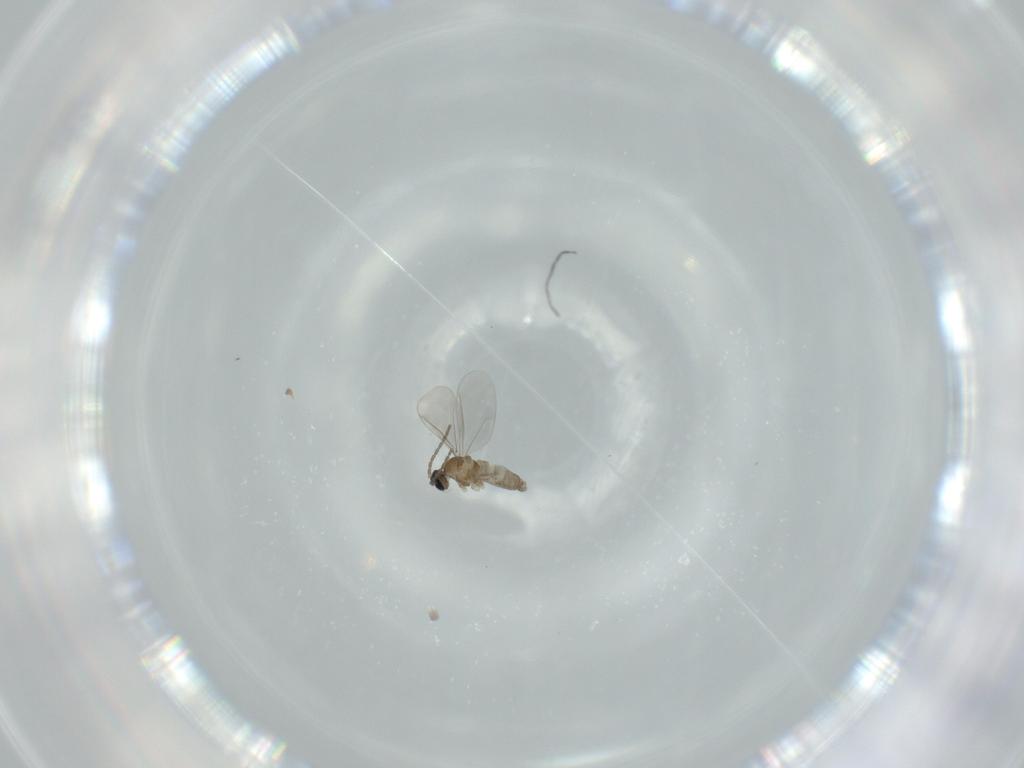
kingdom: Animalia
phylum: Arthropoda
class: Insecta
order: Diptera
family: Cecidomyiidae
